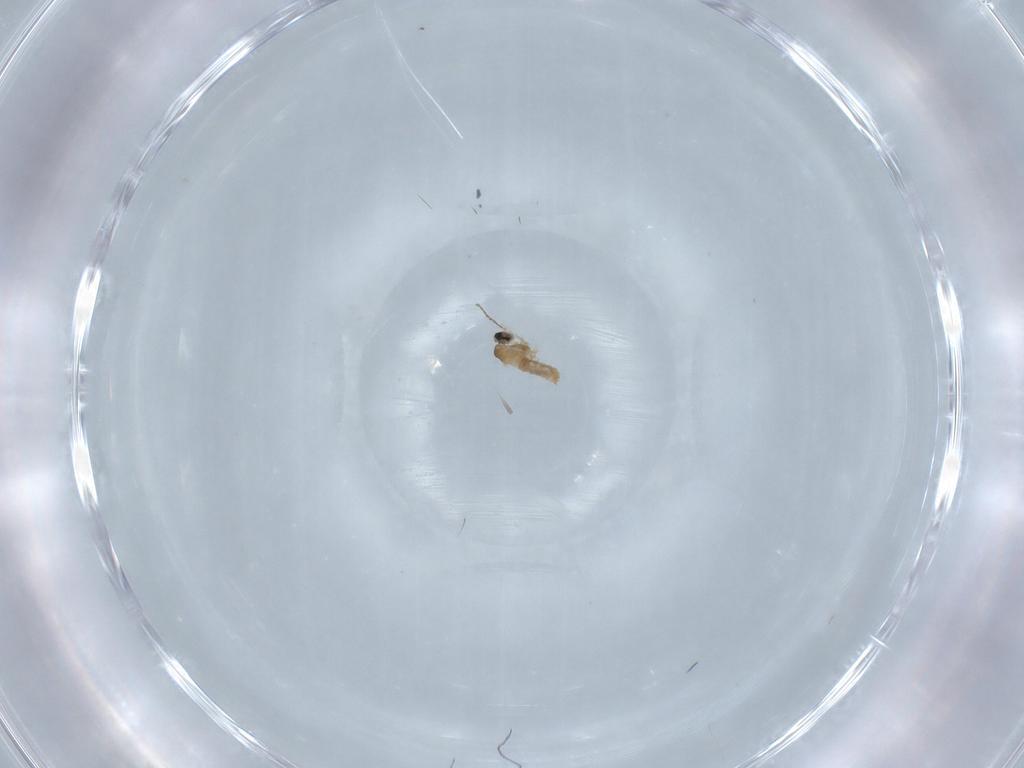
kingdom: Animalia
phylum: Arthropoda
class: Insecta
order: Diptera
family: Cecidomyiidae
